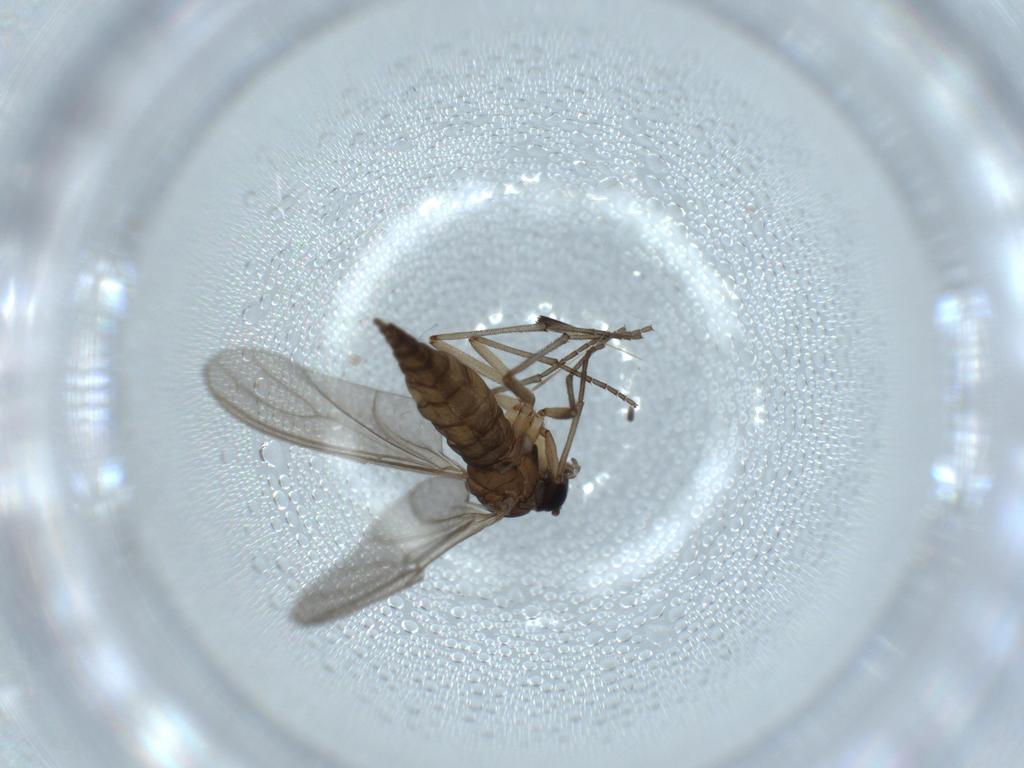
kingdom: Animalia
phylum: Arthropoda
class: Insecta
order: Diptera
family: Sciaridae
